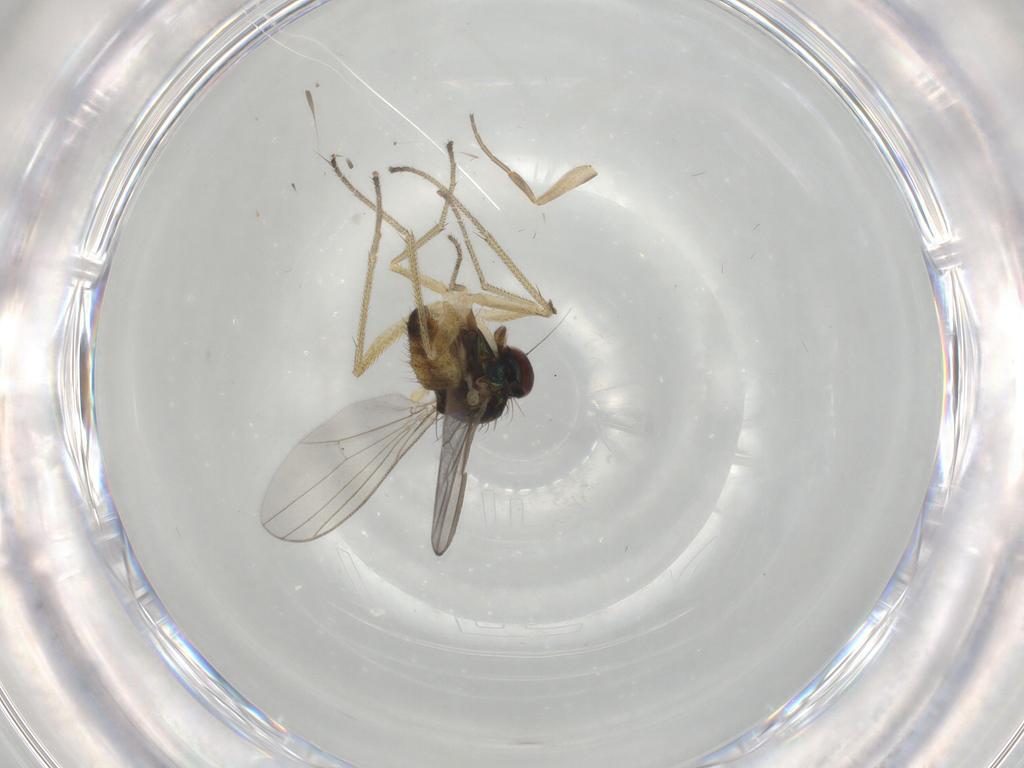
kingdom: Animalia
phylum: Arthropoda
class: Insecta
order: Diptera
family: Dolichopodidae
